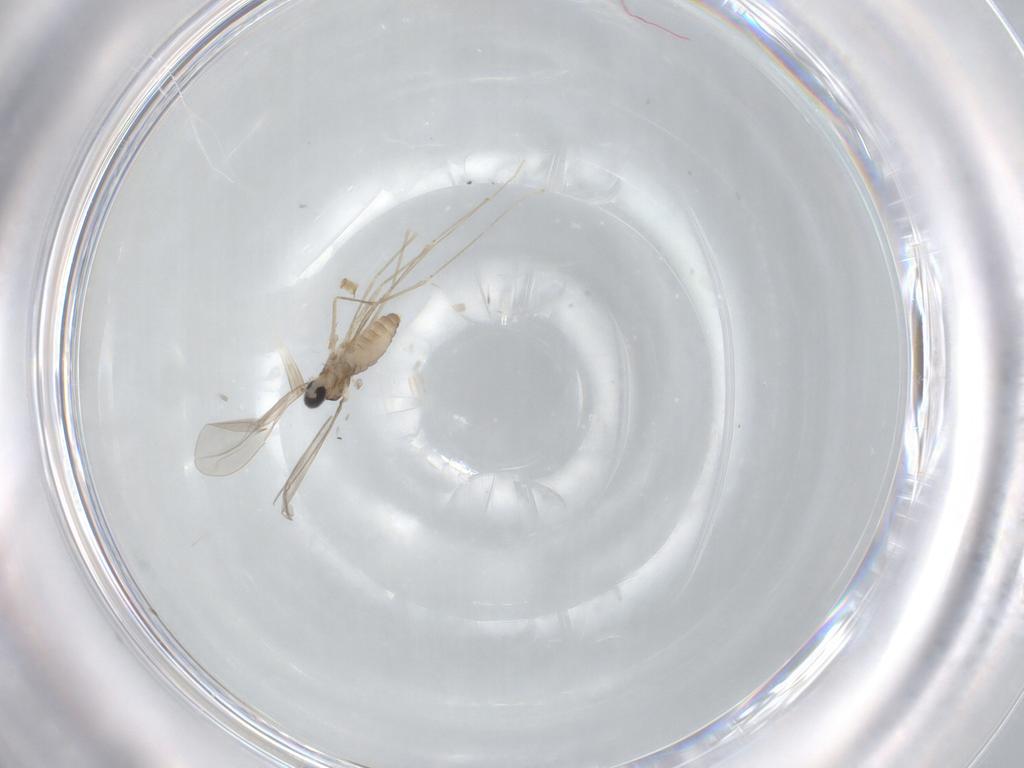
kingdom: Animalia
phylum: Arthropoda
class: Insecta
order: Diptera
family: Cecidomyiidae
